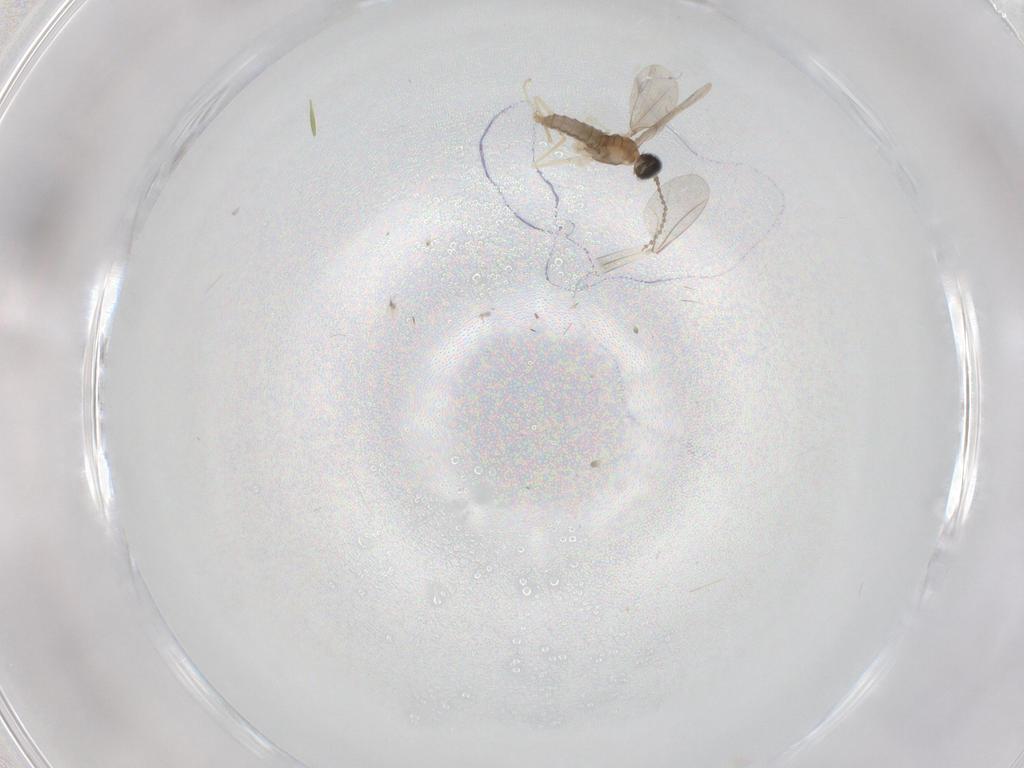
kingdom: Animalia
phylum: Arthropoda
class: Insecta
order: Diptera
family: Cecidomyiidae
